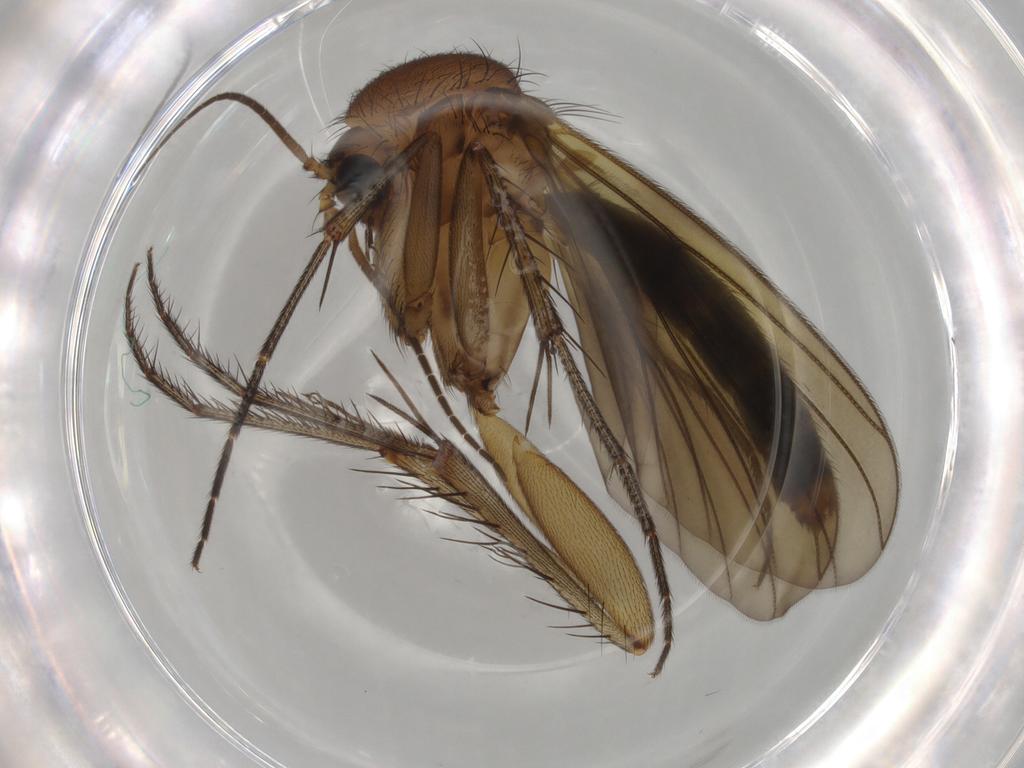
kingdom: Animalia
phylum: Arthropoda
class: Insecta
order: Diptera
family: Mycetophilidae
